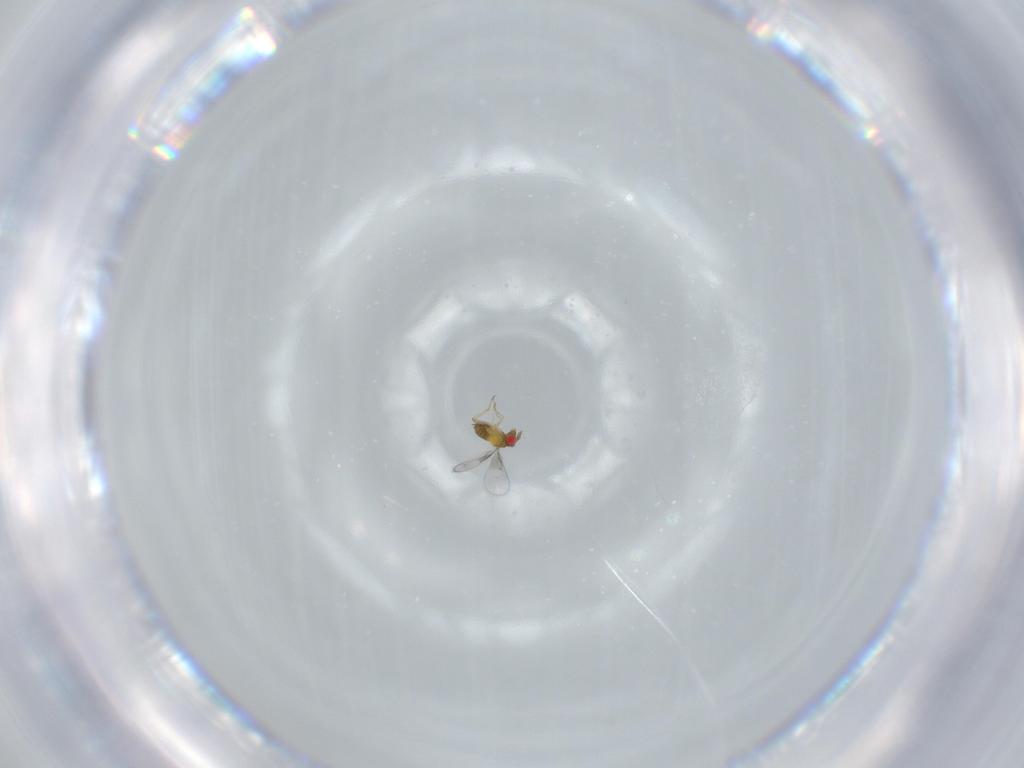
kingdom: Animalia
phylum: Arthropoda
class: Insecta
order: Hymenoptera
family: Trichogrammatidae
